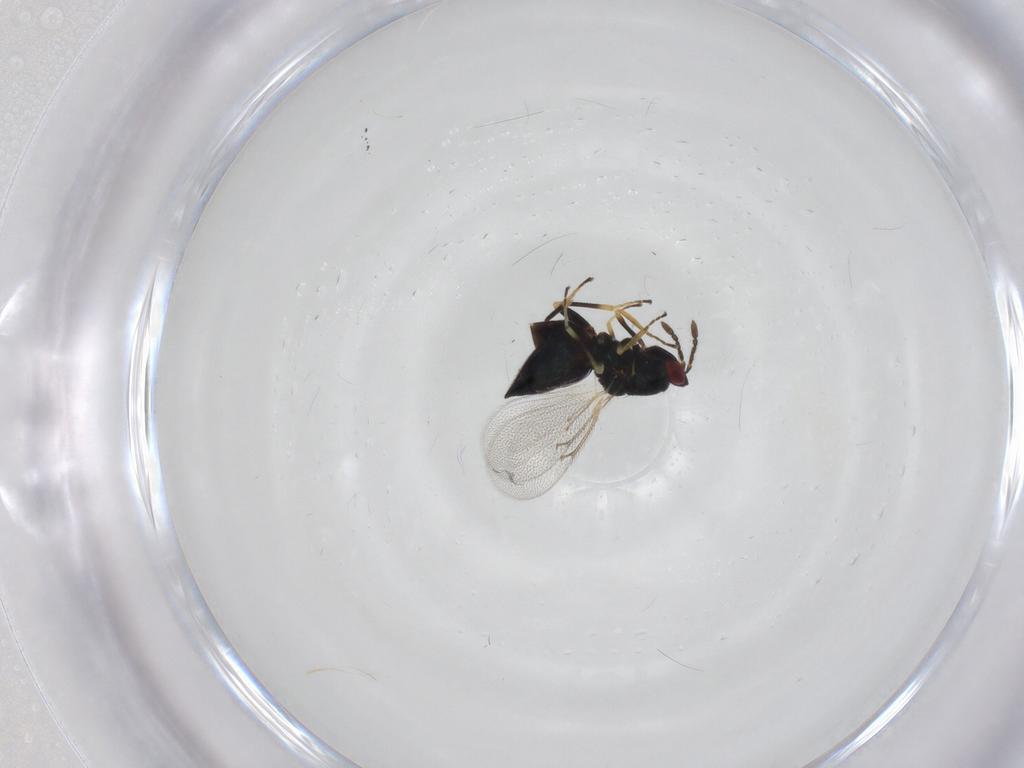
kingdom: Animalia
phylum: Arthropoda
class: Insecta
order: Hymenoptera
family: Eulophidae
